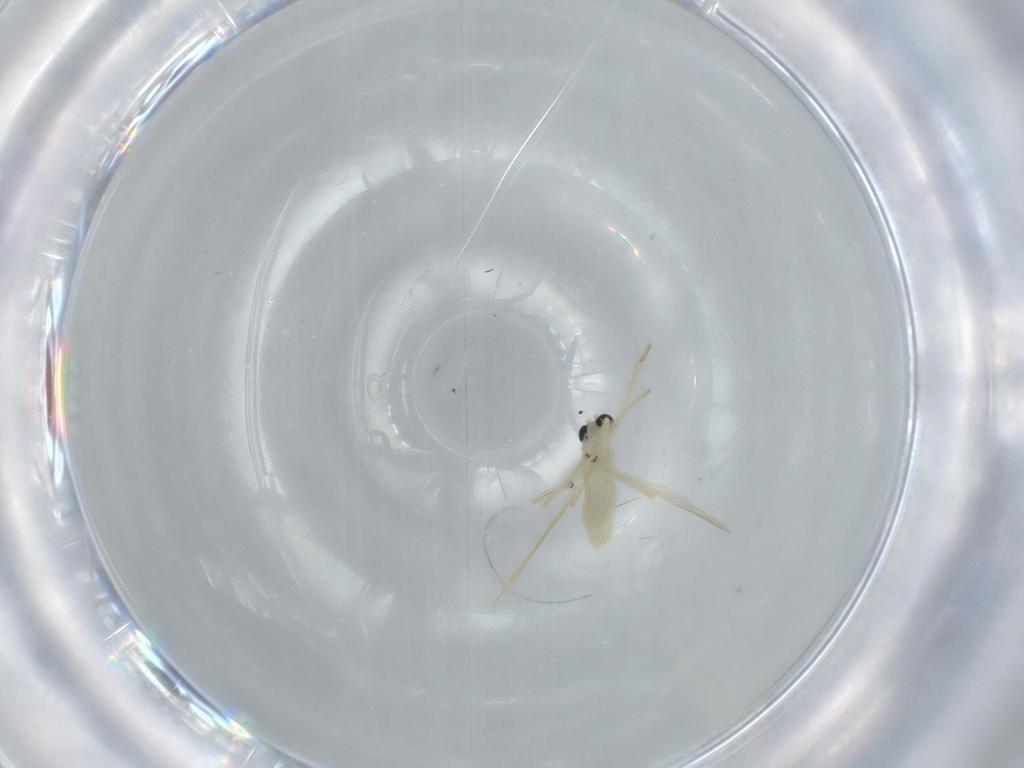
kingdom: Animalia
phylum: Arthropoda
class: Insecta
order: Diptera
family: Chironomidae
